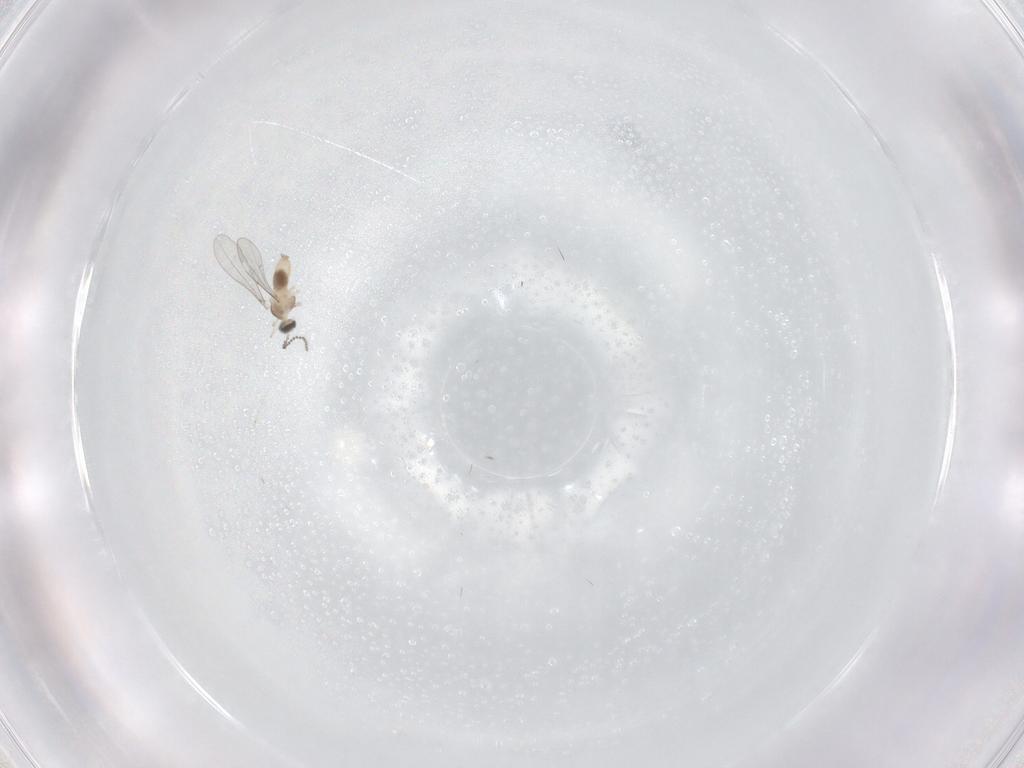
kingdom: Animalia
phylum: Arthropoda
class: Insecta
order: Diptera
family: Cecidomyiidae
